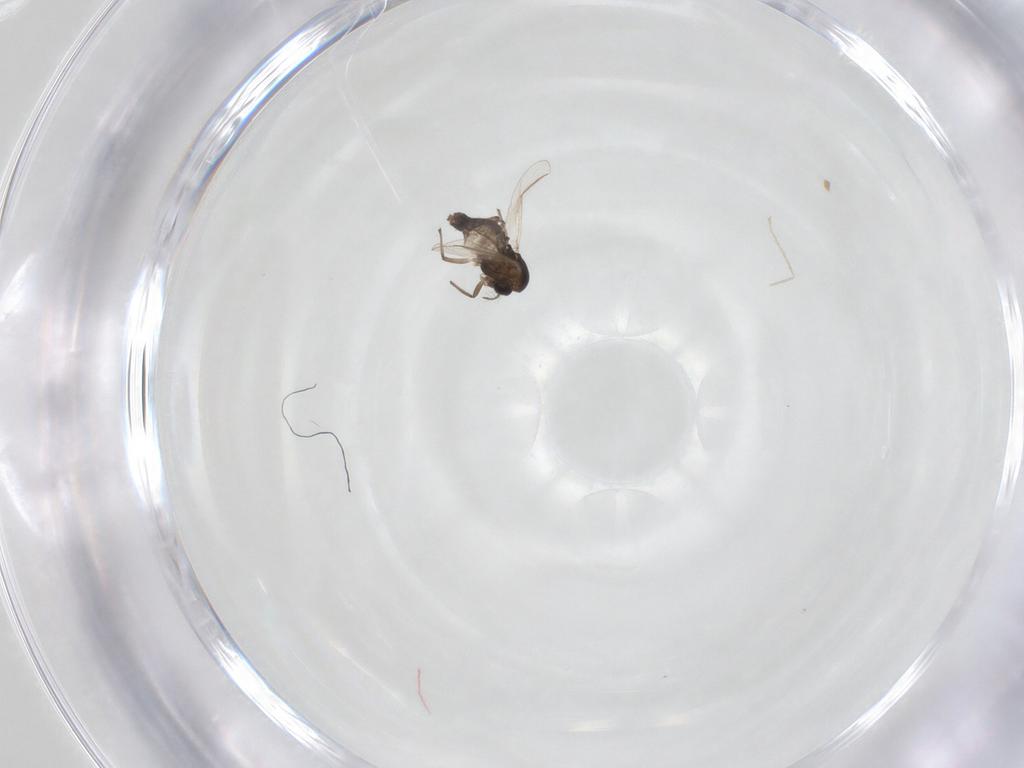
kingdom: Animalia
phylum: Arthropoda
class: Insecta
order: Diptera
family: Chironomidae
